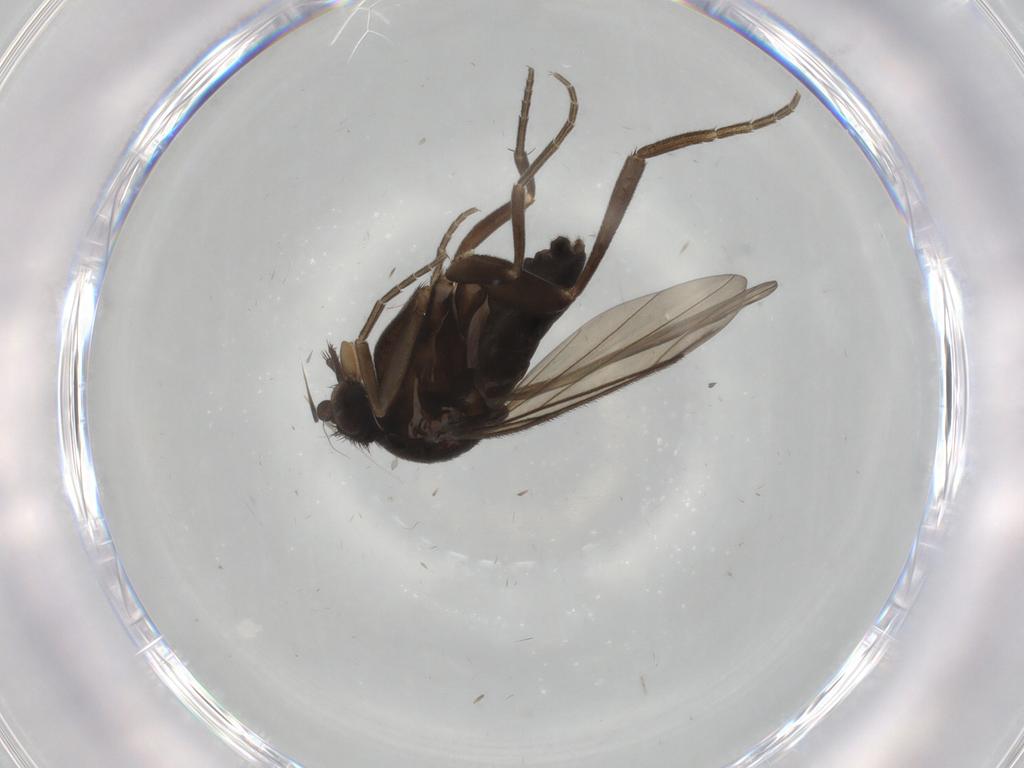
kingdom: Animalia
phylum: Arthropoda
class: Insecta
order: Diptera
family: Phoridae
